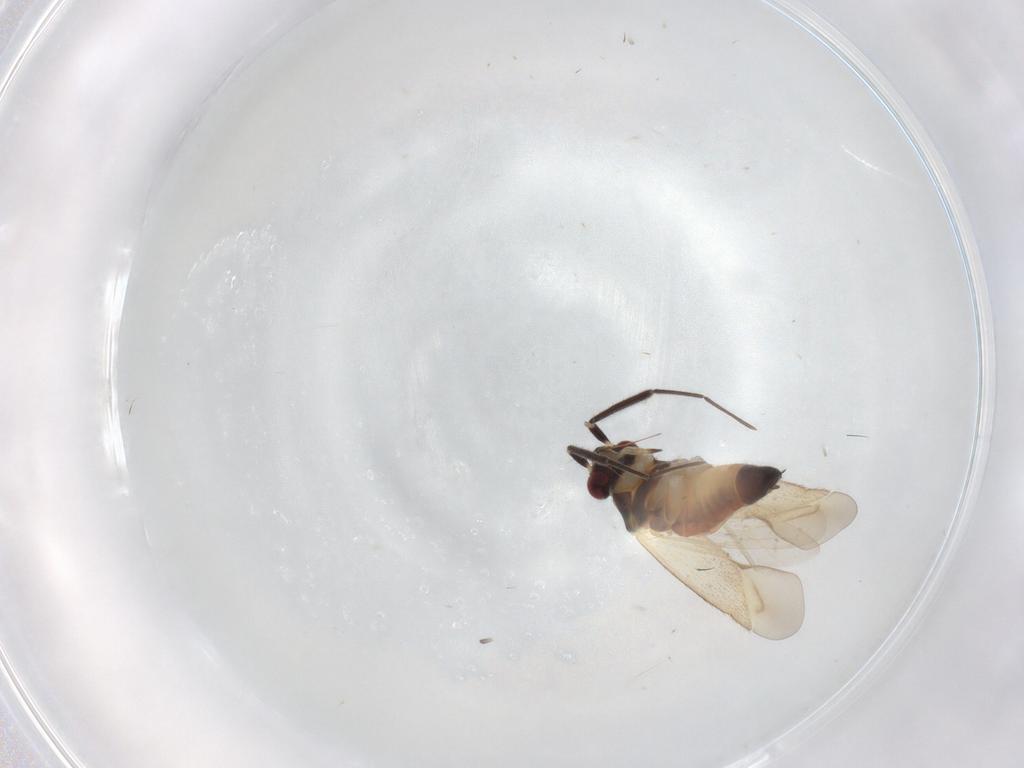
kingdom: Animalia
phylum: Arthropoda
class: Insecta
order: Hemiptera
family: Miridae
